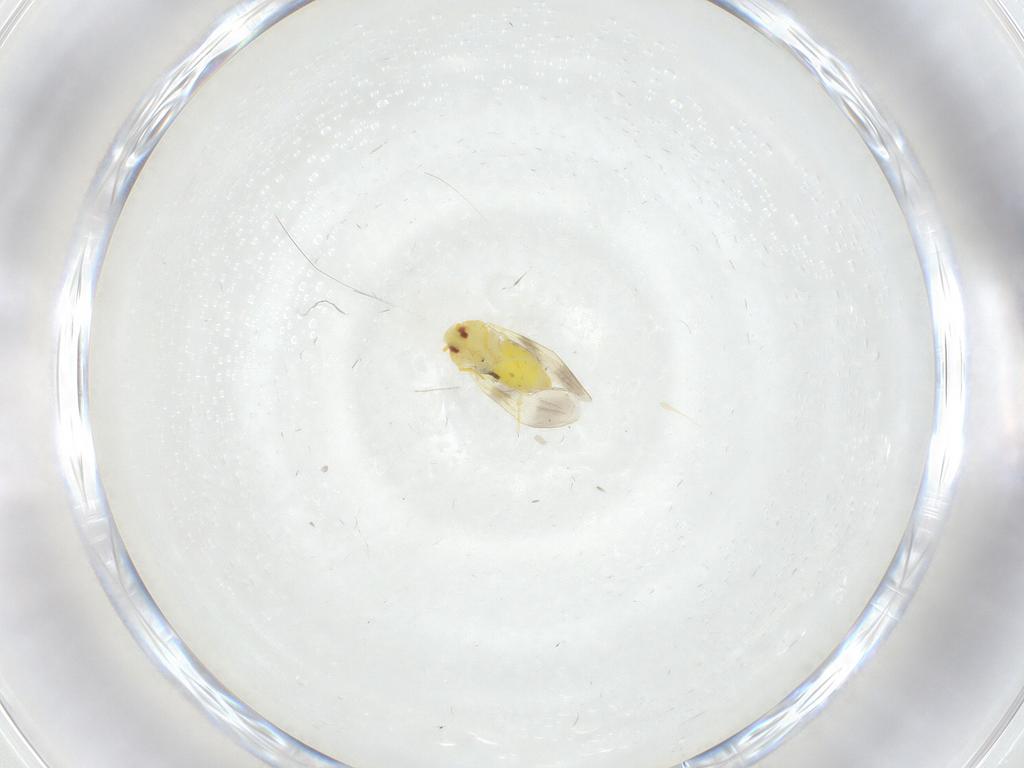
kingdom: Animalia
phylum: Arthropoda
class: Insecta
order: Hemiptera
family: Aleyrodidae
